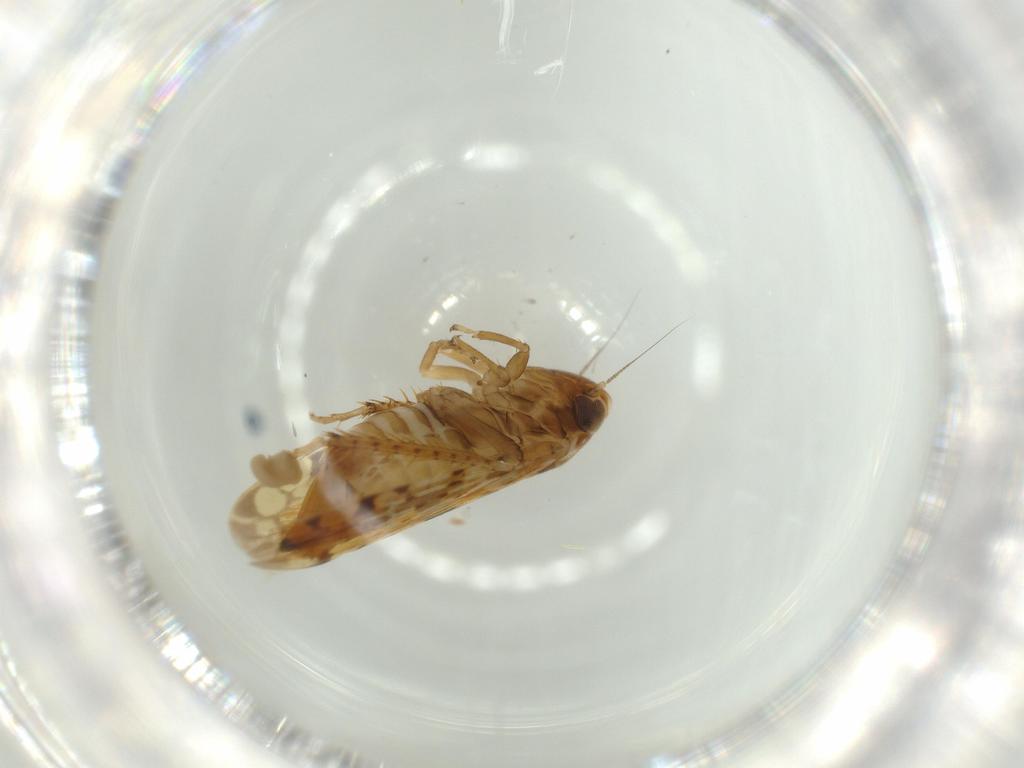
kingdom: Animalia
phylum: Arthropoda
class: Insecta
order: Hemiptera
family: Cicadellidae
